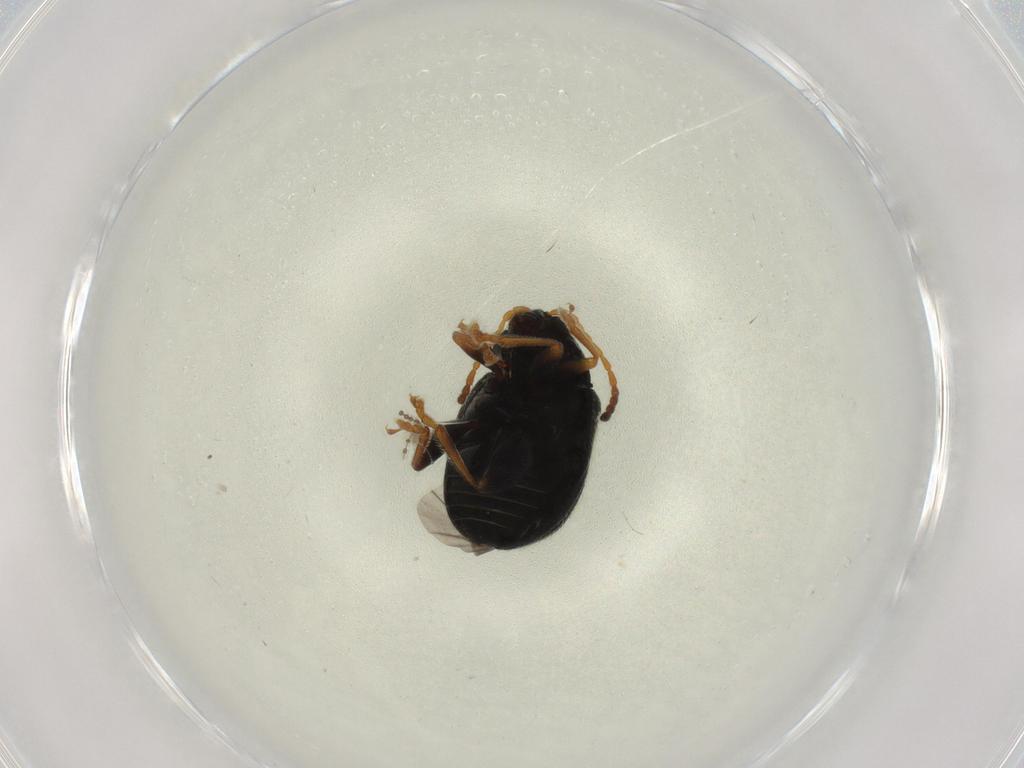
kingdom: Animalia
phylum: Arthropoda
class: Insecta
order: Coleoptera
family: Chrysomelidae
